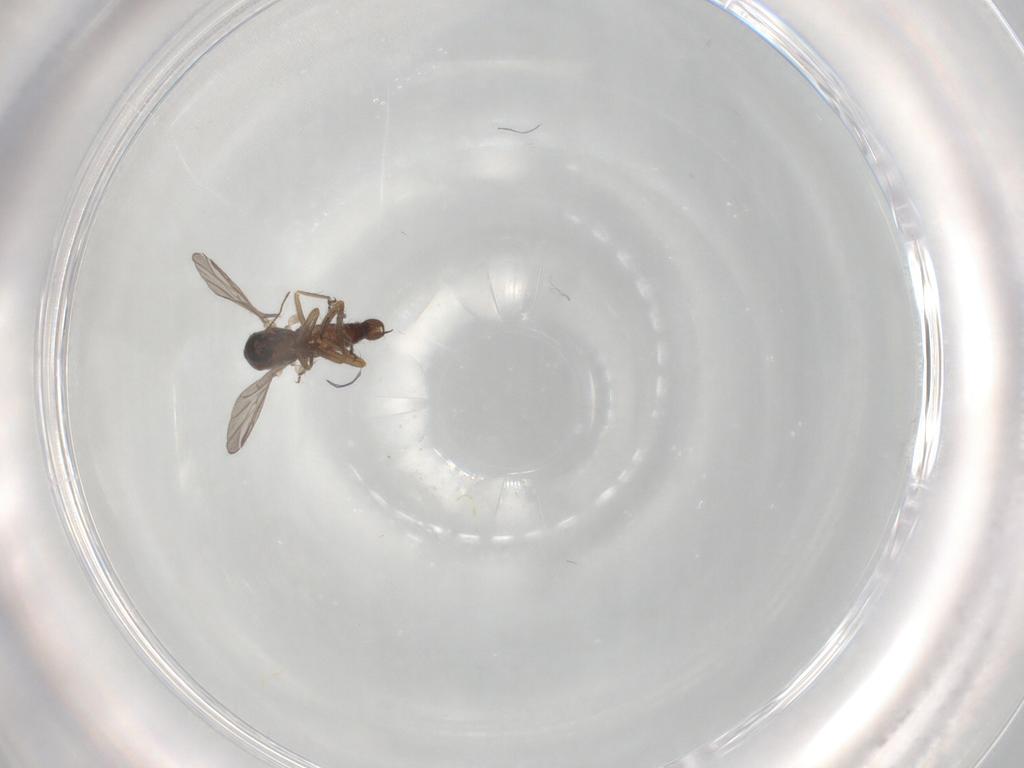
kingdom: Animalia
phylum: Arthropoda
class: Insecta
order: Diptera
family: Ceratopogonidae
